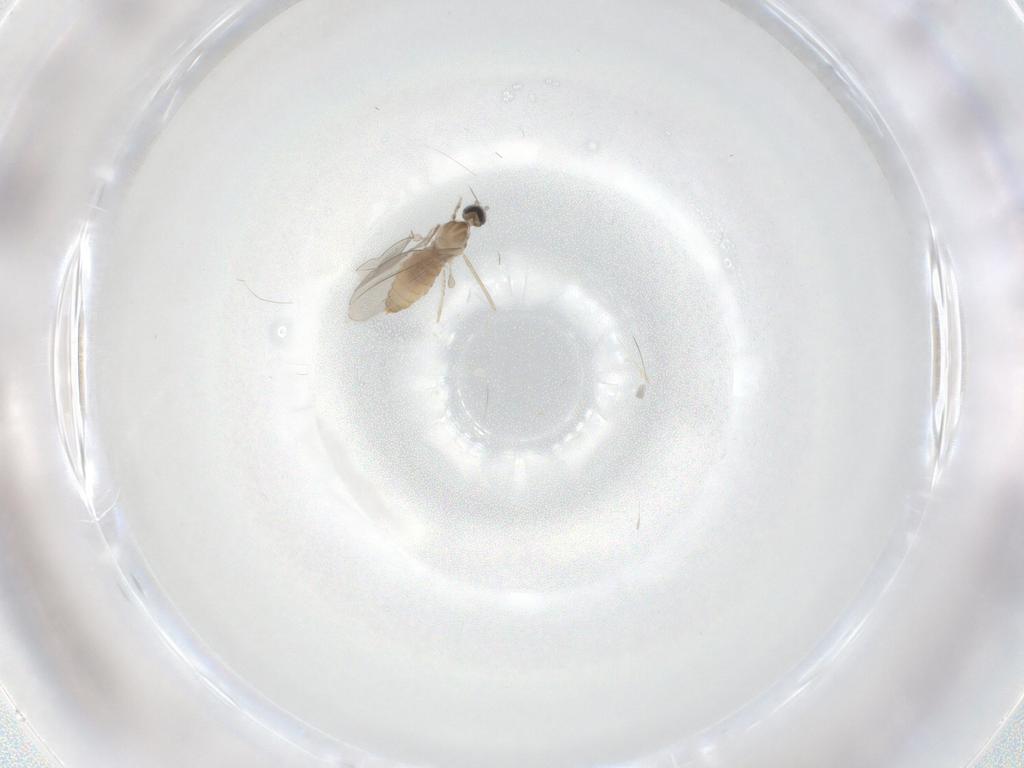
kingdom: Animalia
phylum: Arthropoda
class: Insecta
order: Diptera
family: Limoniidae
